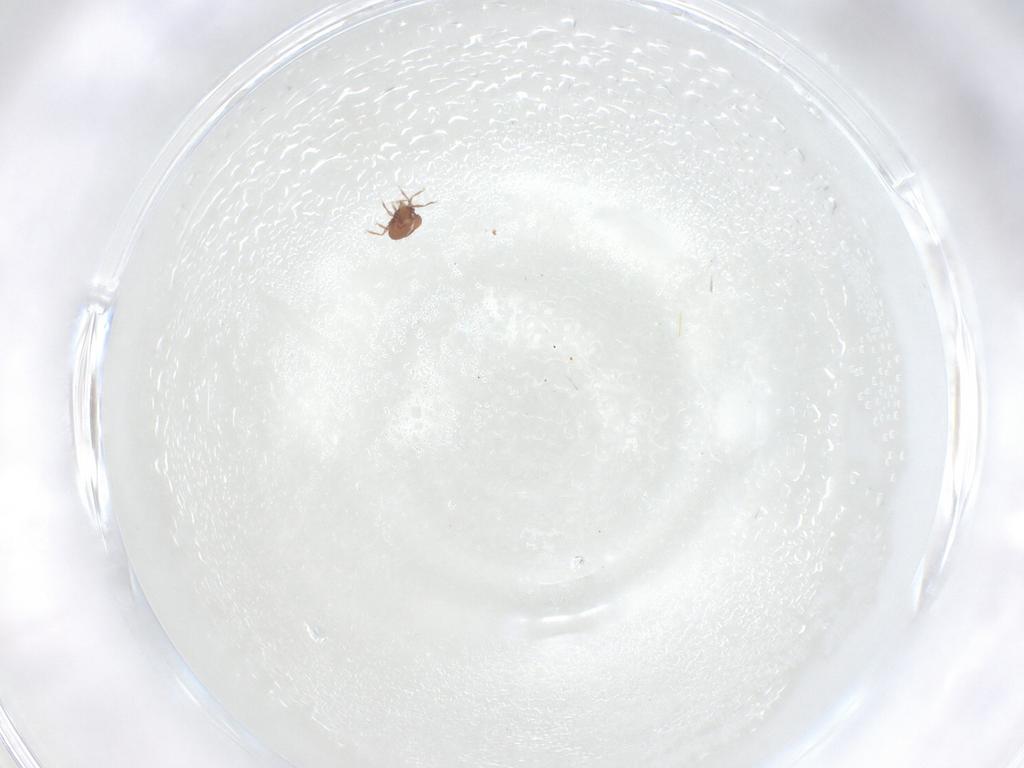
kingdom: Animalia
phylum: Arthropoda
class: Arachnida
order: Sarcoptiformes
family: Oribatulidae
